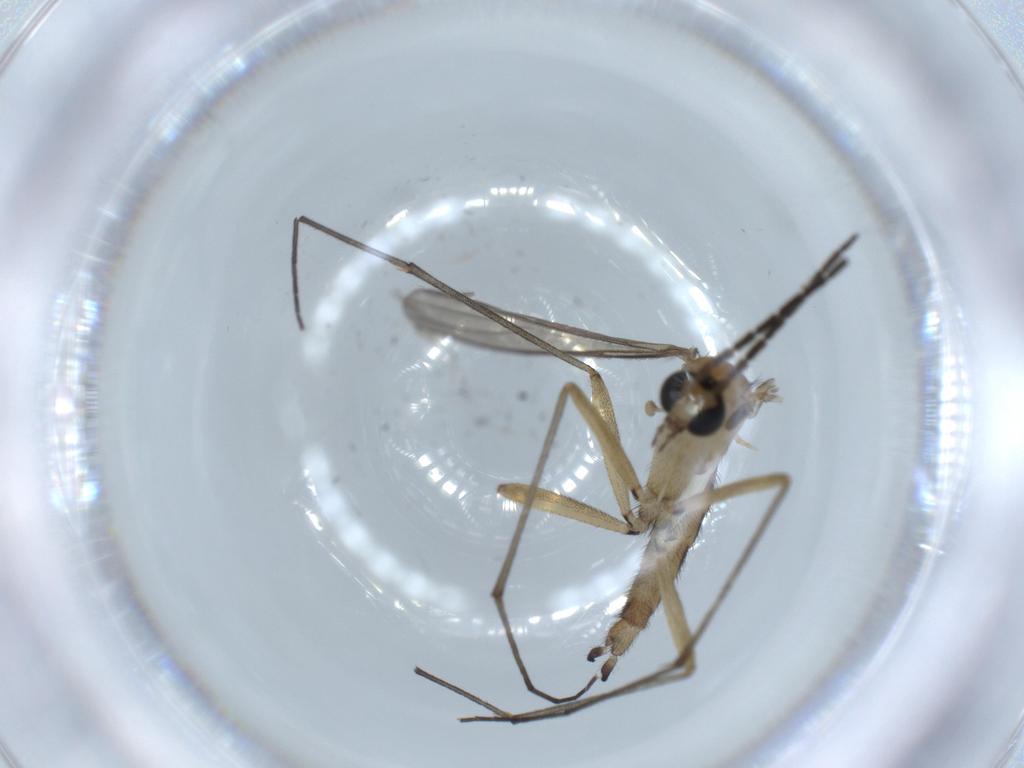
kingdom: Animalia
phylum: Arthropoda
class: Insecta
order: Diptera
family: Sciaridae
